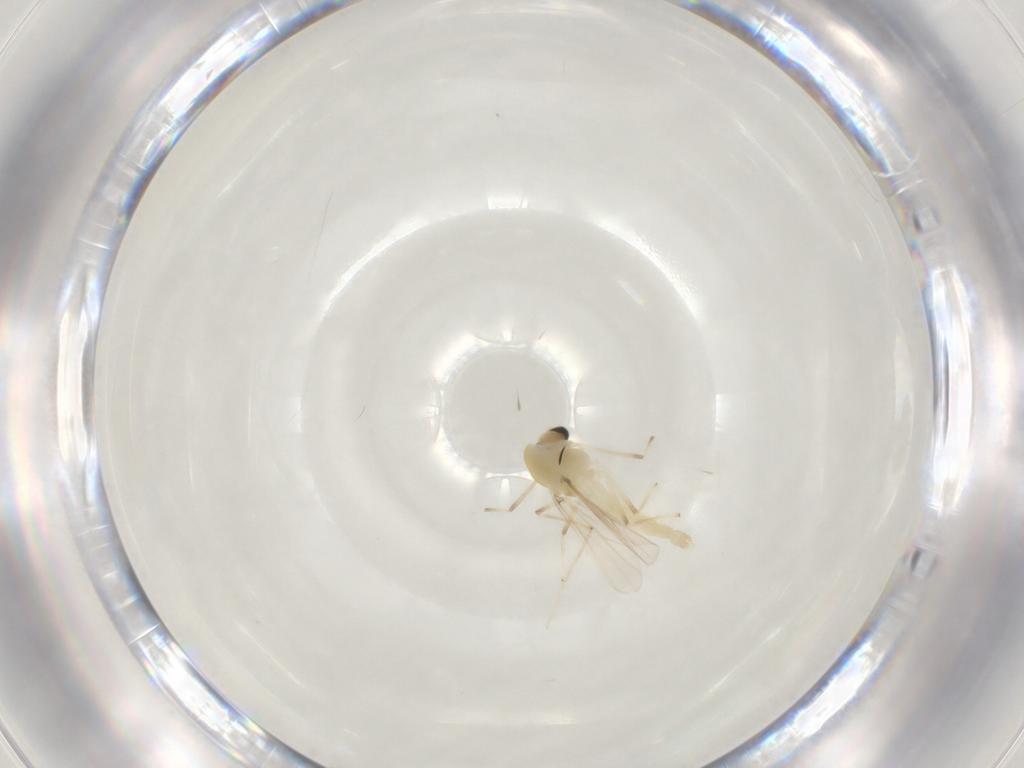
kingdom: Animalia
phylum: Arthropoda
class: Insecta
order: Diptera
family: Chironomidae
